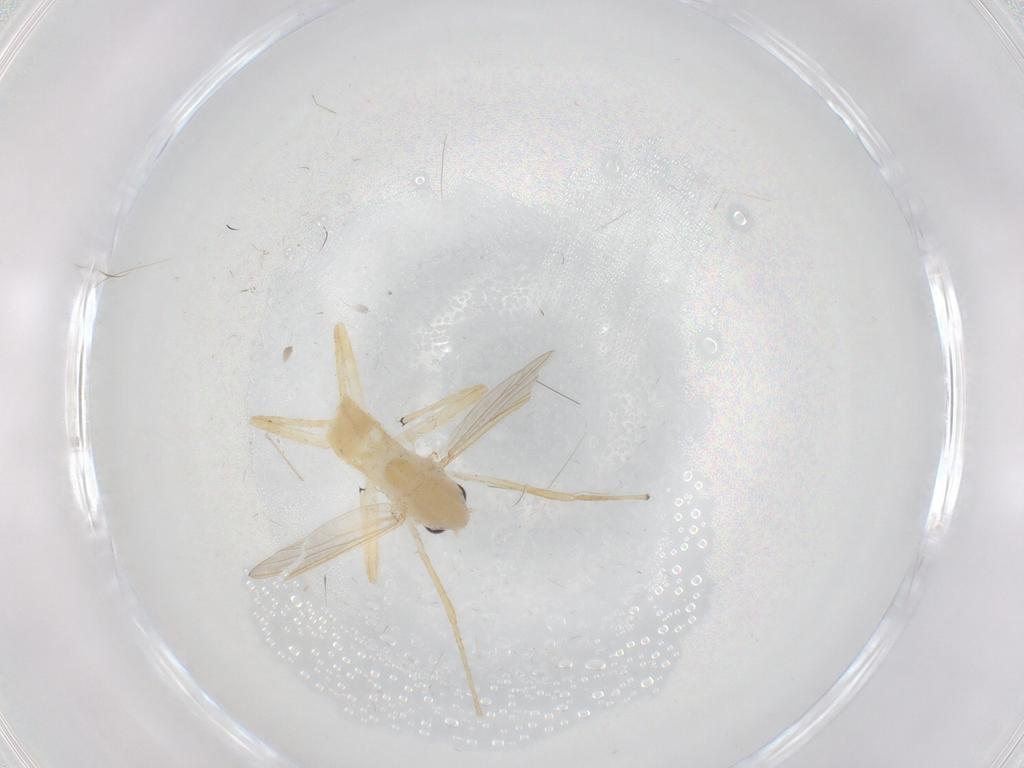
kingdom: Animalia
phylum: Arthropoda
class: Insecta
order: Diptera
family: Chironomidae
